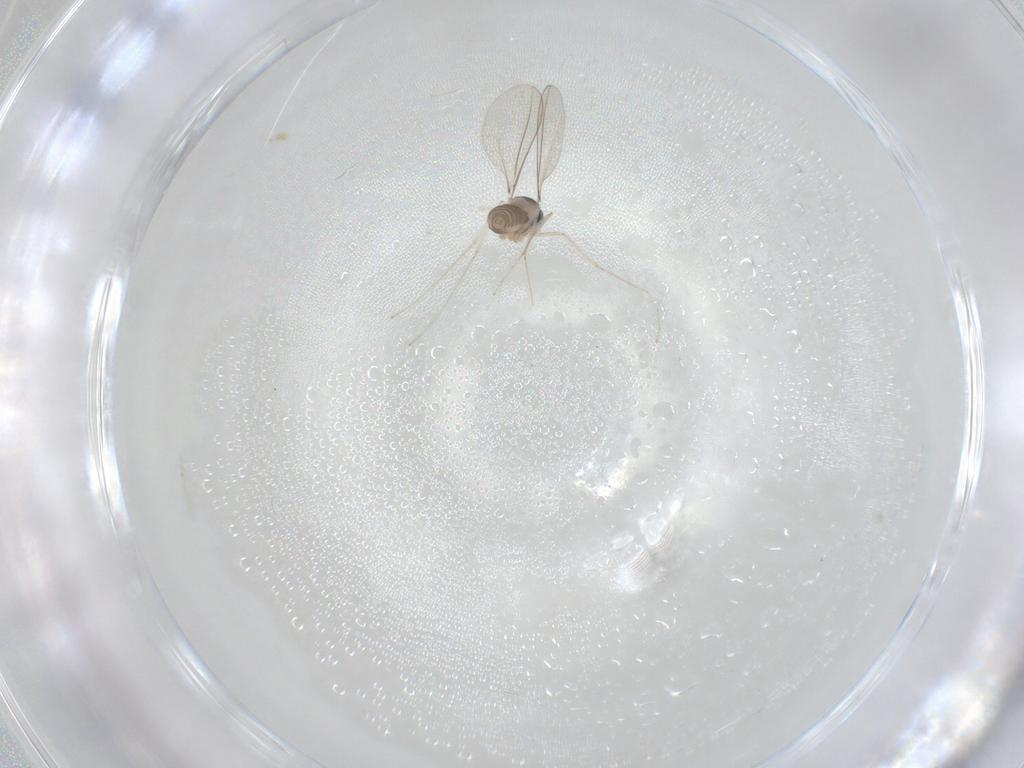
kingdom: Animalia
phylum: Arthropoda
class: Insecta
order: Diptera
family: Cecidomyiidae
